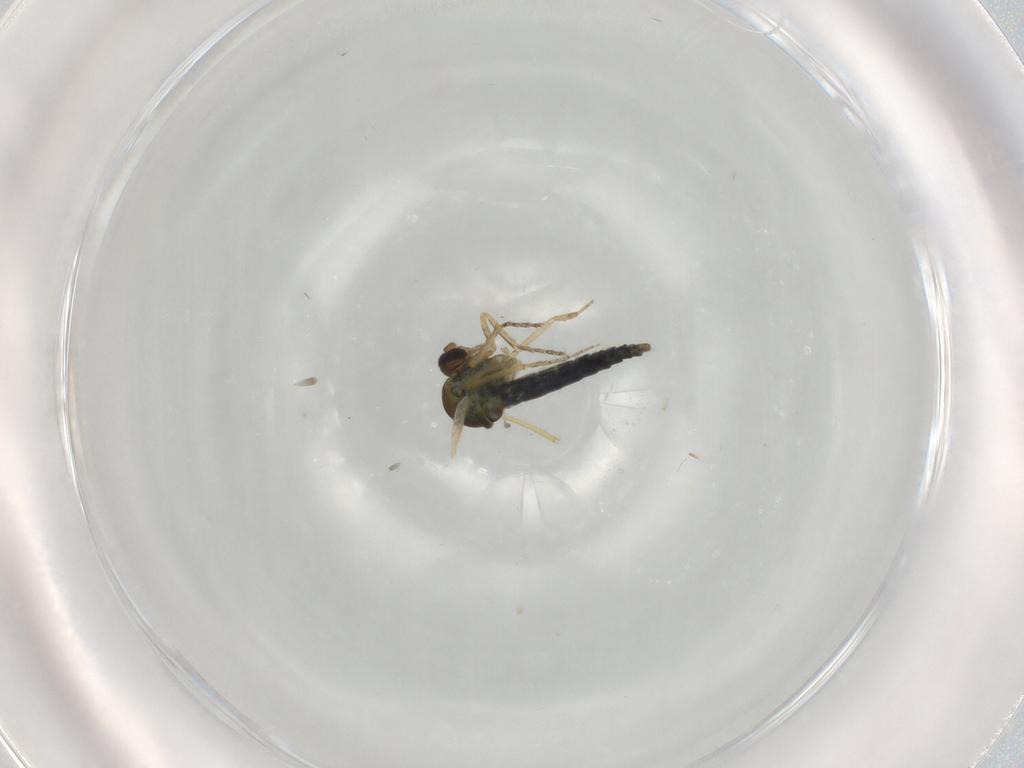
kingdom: Animalia
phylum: Arthropoda
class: Insecta
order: Diptera
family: Ceratopogonidae
